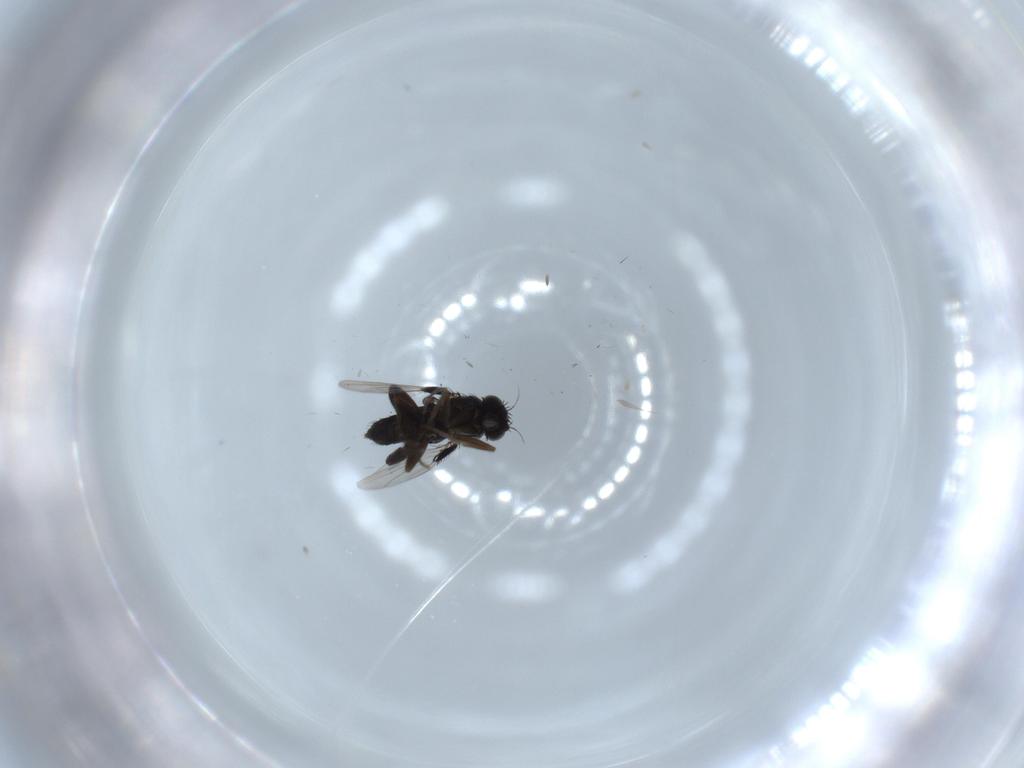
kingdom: Animalia
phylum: Arthropoda
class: Insecta
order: Diptera
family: Phoridae
